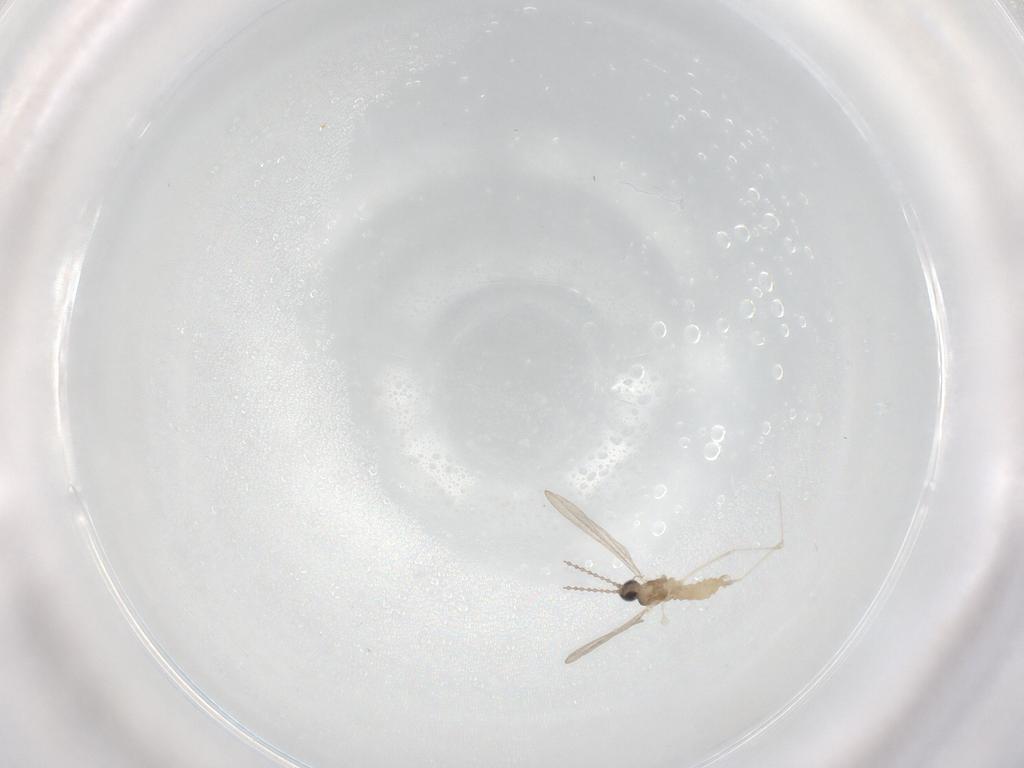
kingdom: Animalia
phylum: Arthropoda
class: Insecta
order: Diptera
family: Cecidomyiidae
